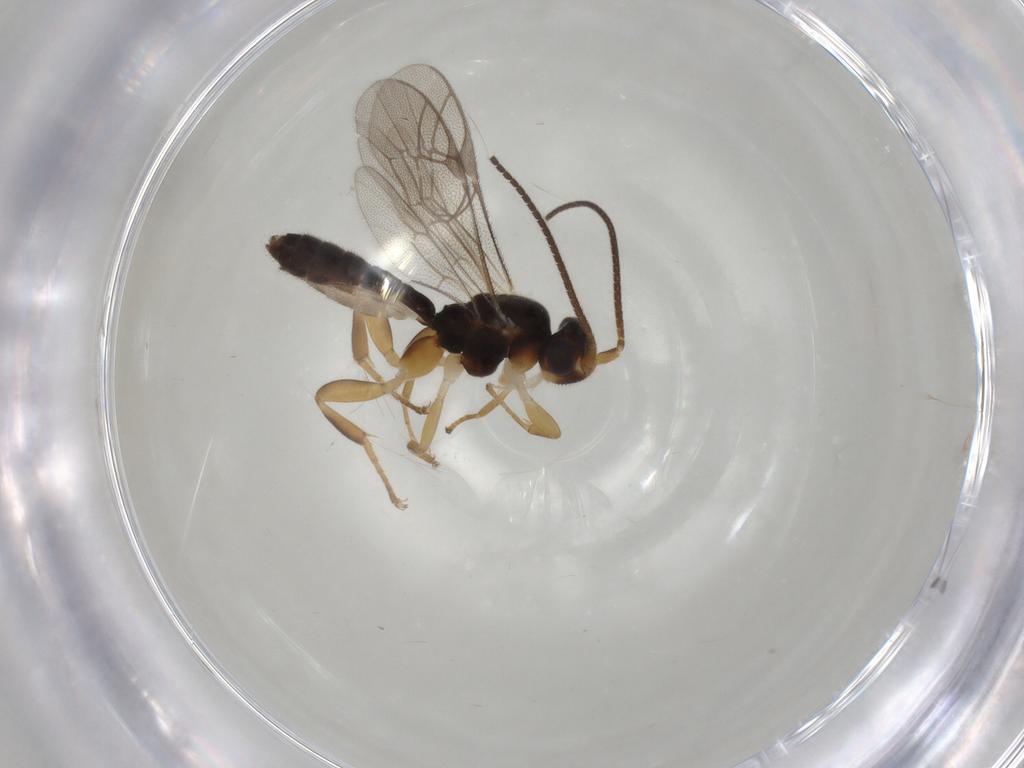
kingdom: Animalia
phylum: Arthropoda
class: Insecta
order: Hymenoptera
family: Ichneumonidae
